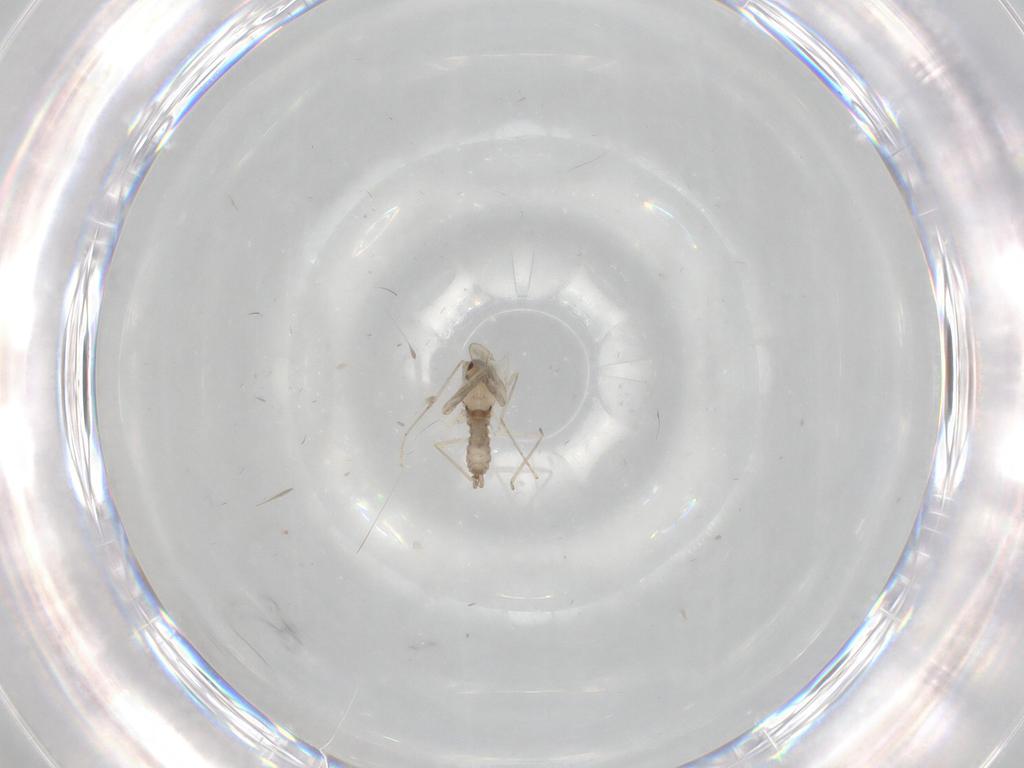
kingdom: Animalia
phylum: Arthropoda
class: Insecta
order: Diptera
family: Cecidomyiidae
